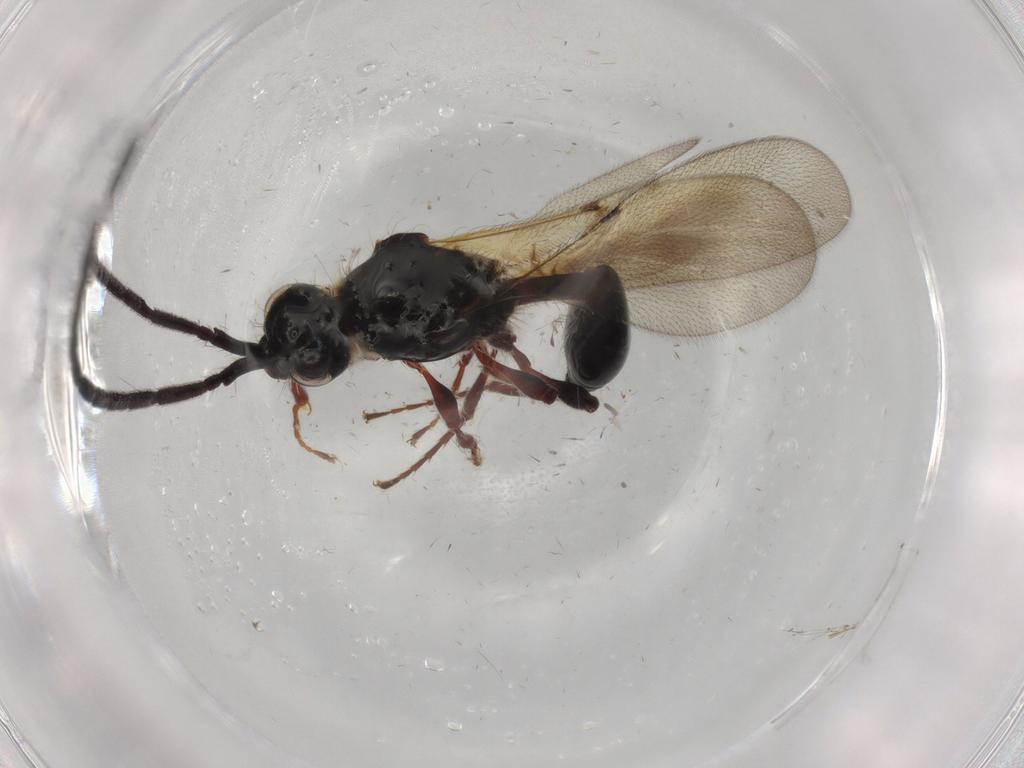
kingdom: Animalia
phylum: Arthropoda
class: Insecta
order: Hymenoptera
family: Diapriidae
